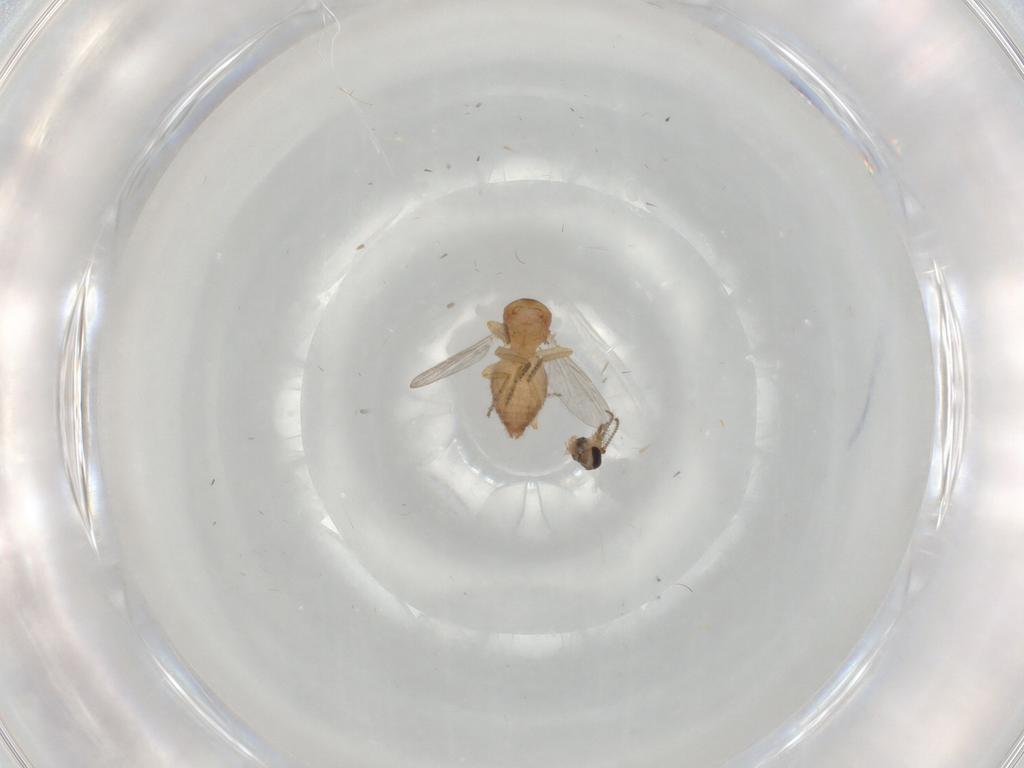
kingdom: Animalia
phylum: Arthropoda
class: Insecta
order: Diptera
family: Ceratopogonidae
